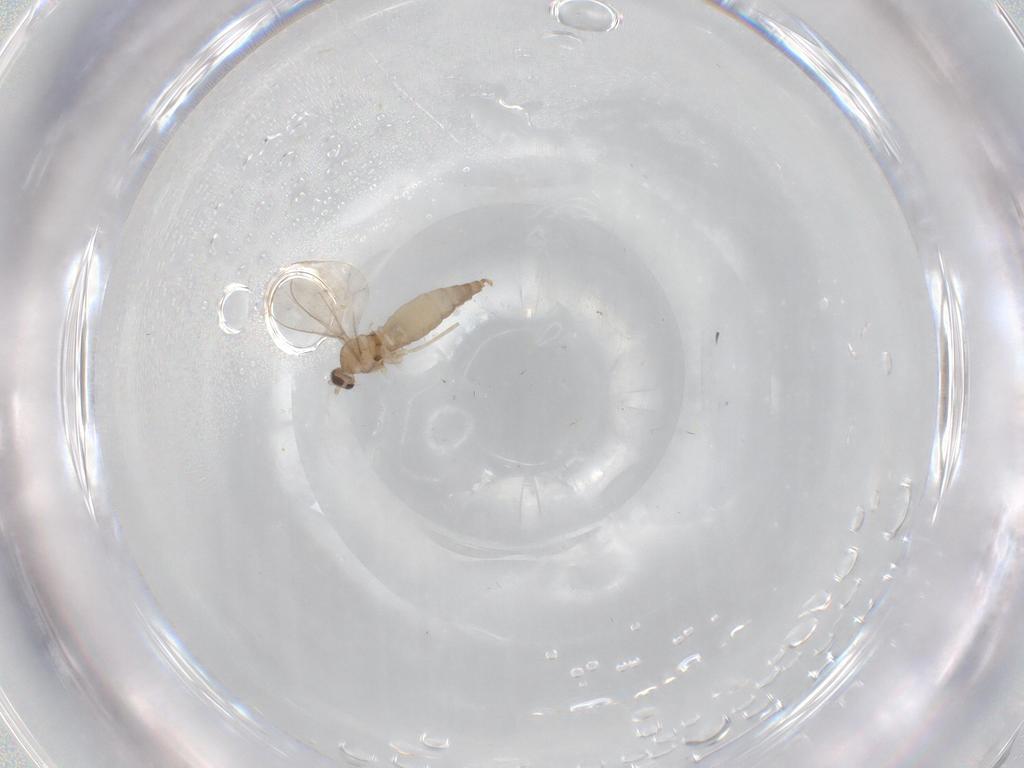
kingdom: Animalia
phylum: Arthropoda
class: Insecta
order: Diptera
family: Cecidomyiidae
